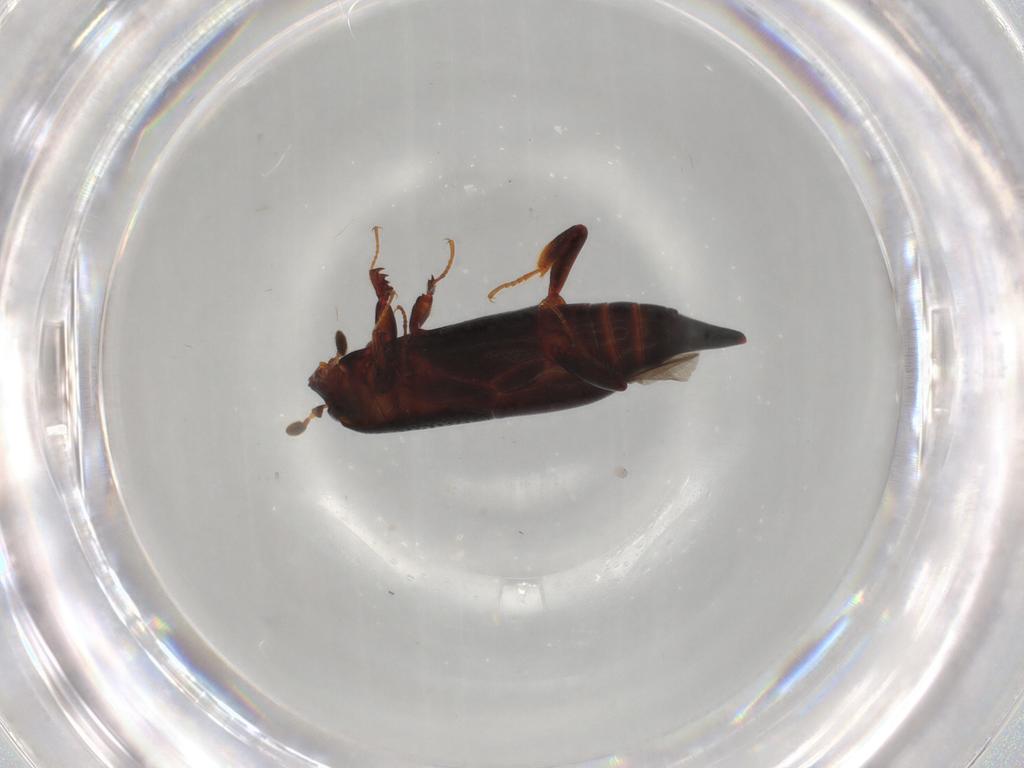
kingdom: Animalia
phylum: Arthropoda
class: Insecta
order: Coleoptera
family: Histeridae
